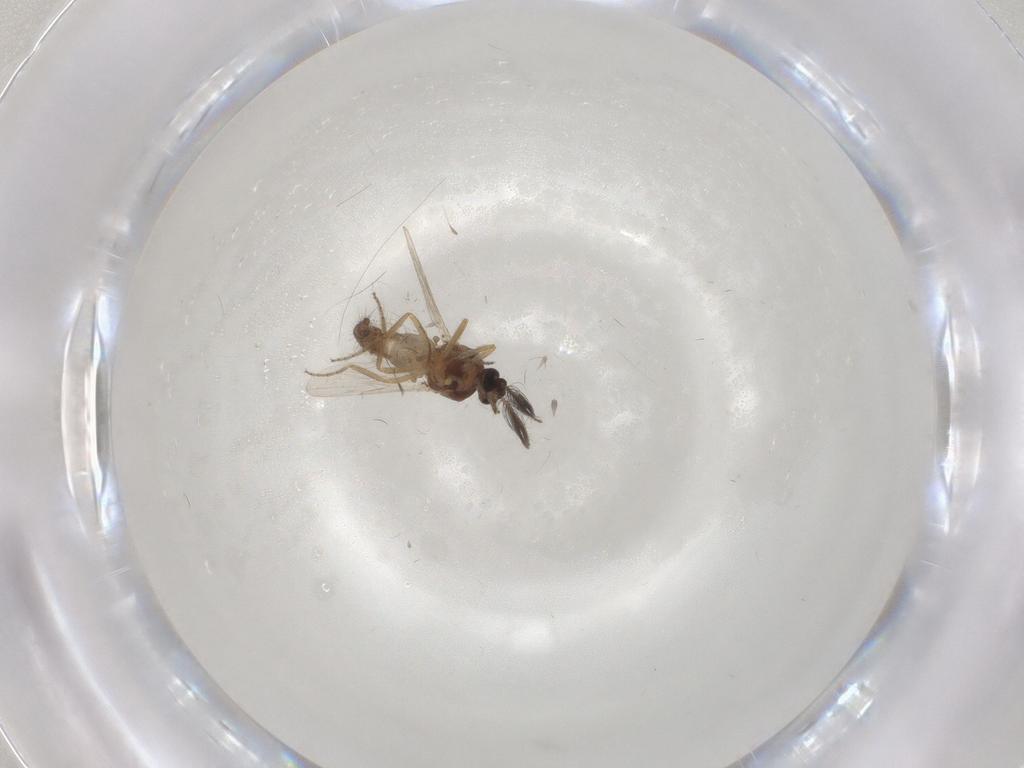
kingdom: Animalia
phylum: Arthropoda
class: Insecta
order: Diptera
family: Ceratopogonidae
